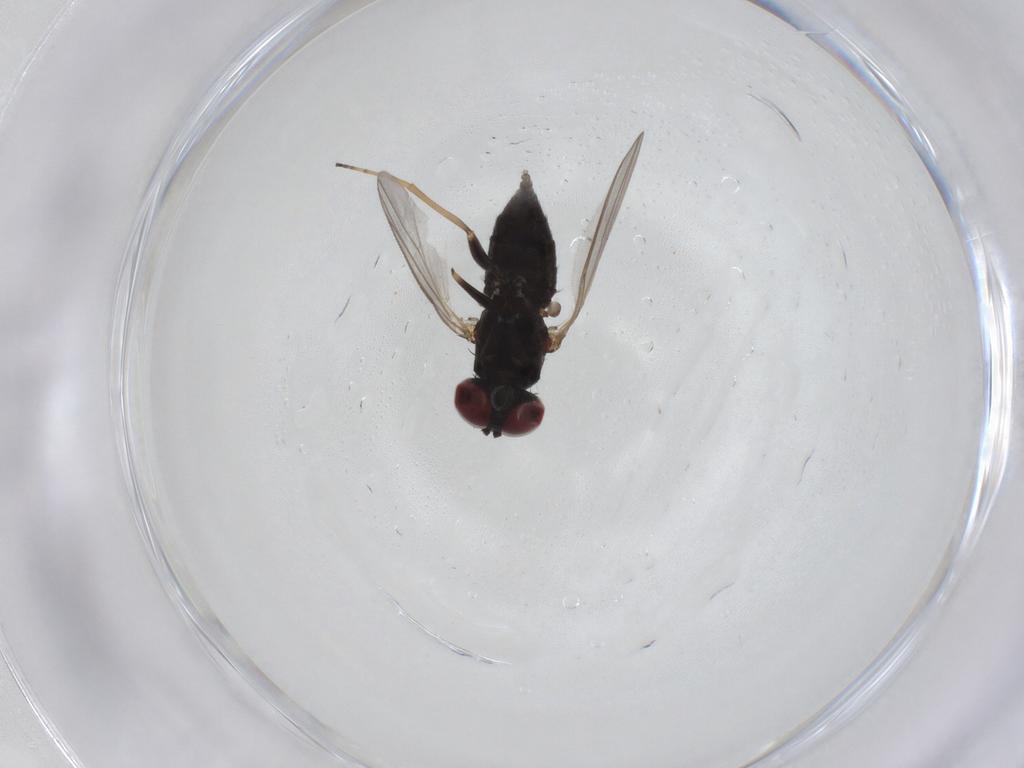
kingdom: Animalia
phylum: Arthropoda
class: Insecta
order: Diptera
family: Dolichopodidae
